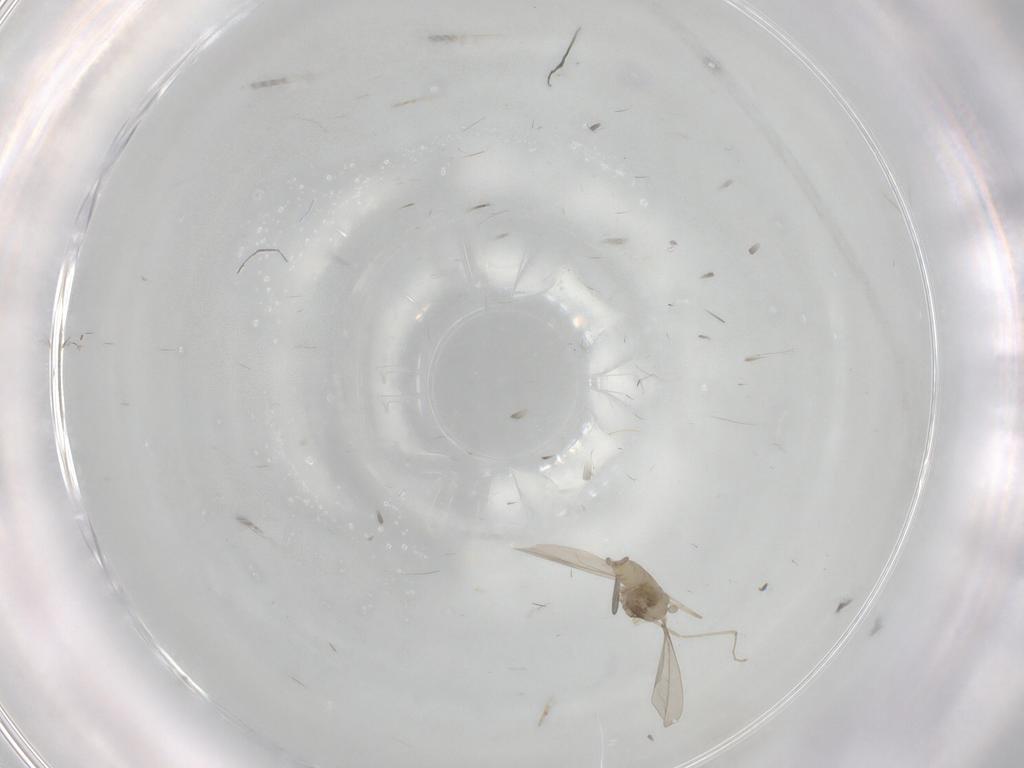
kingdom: Animalia
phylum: Arthropoda
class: Insecta
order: Diptera
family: Cecidomyiidae
